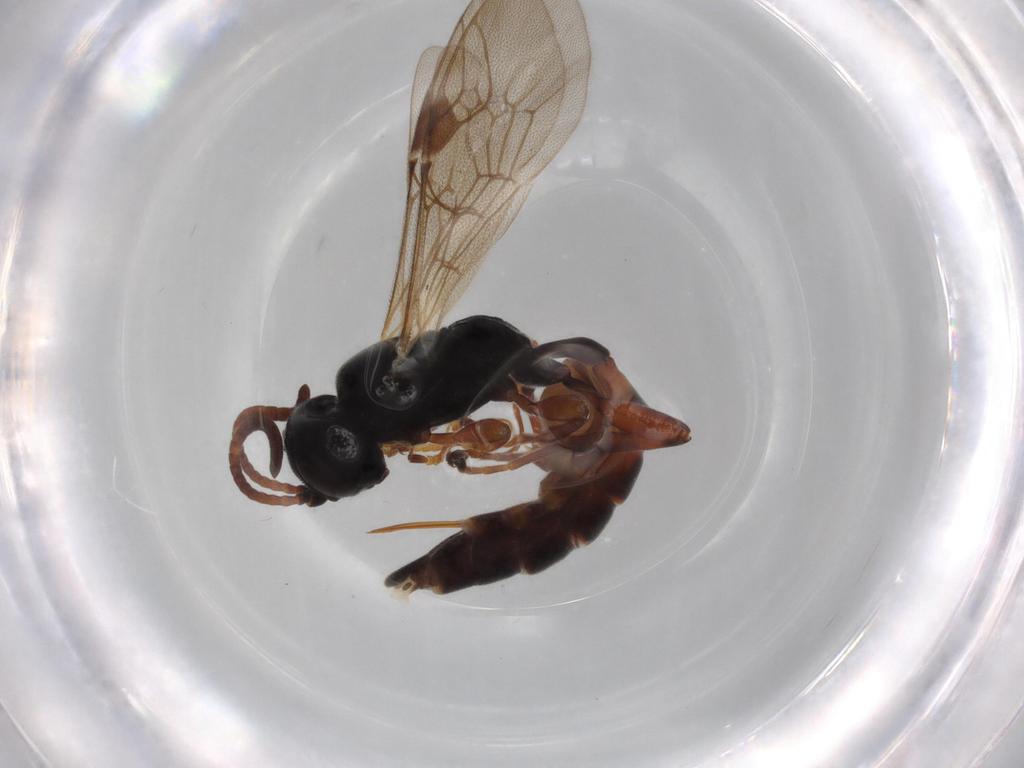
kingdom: Animalia
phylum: Arthropoda
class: Insecta
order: Hymenoptera
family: Ichneumonidae
